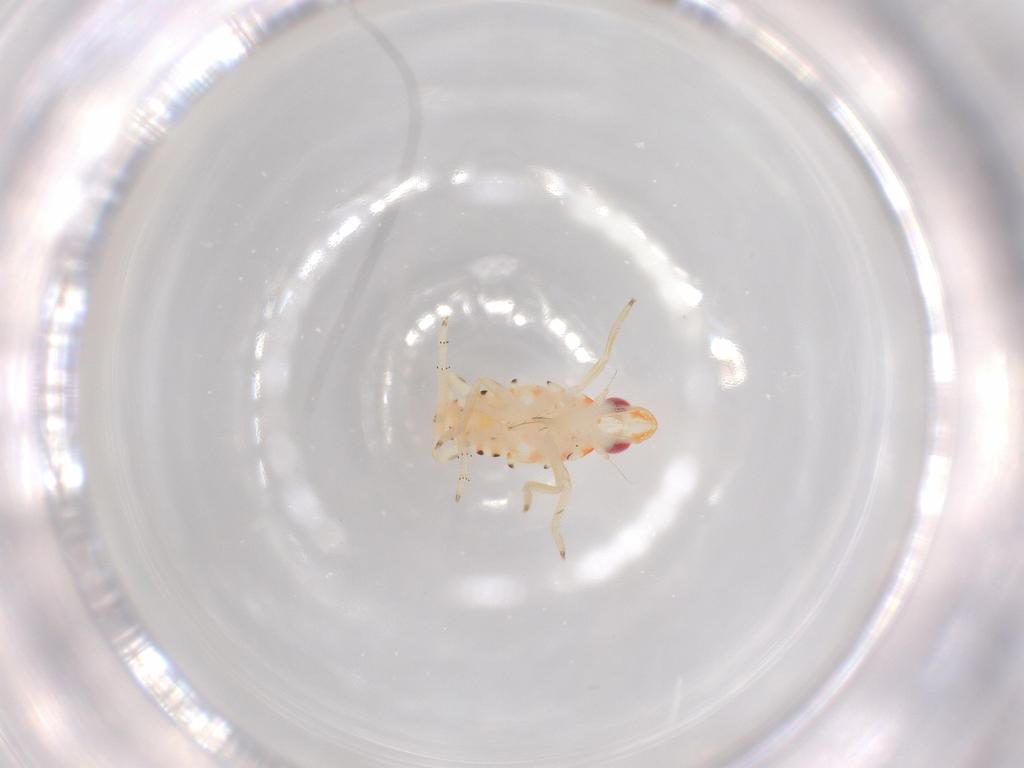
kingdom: Animalia
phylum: Arthropoda
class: Insecta
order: Hemiptera
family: Tropiduchidae
